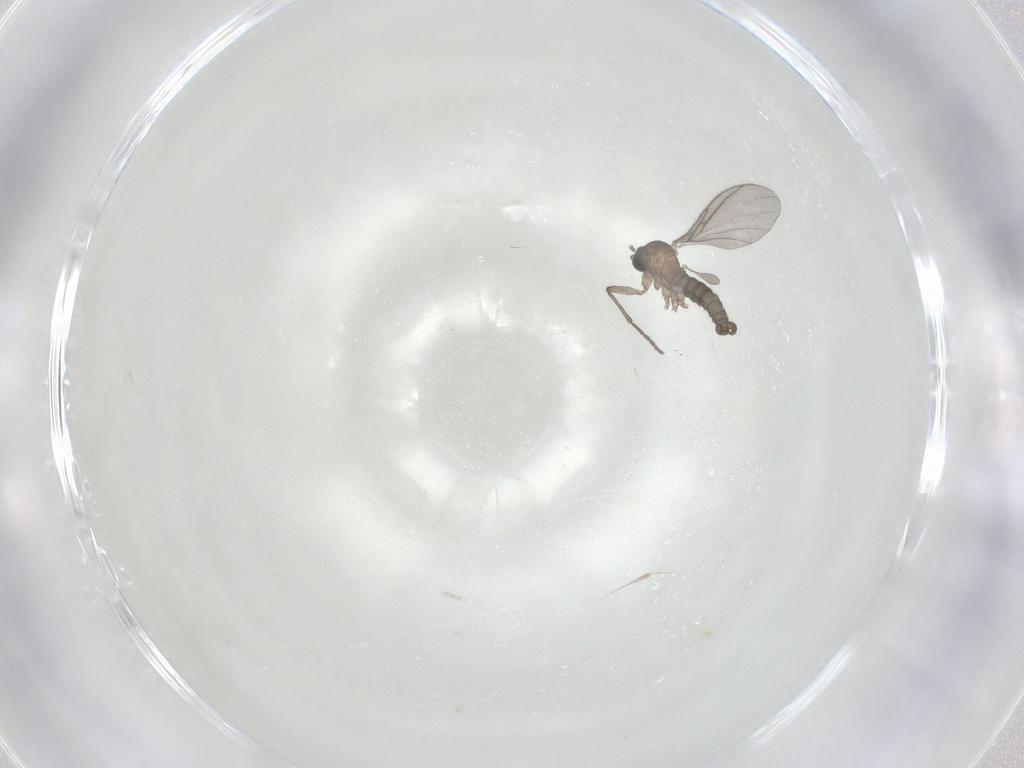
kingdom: Animalia
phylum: Arthropoda
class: Insecta
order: Diptera
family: Sciaridae
